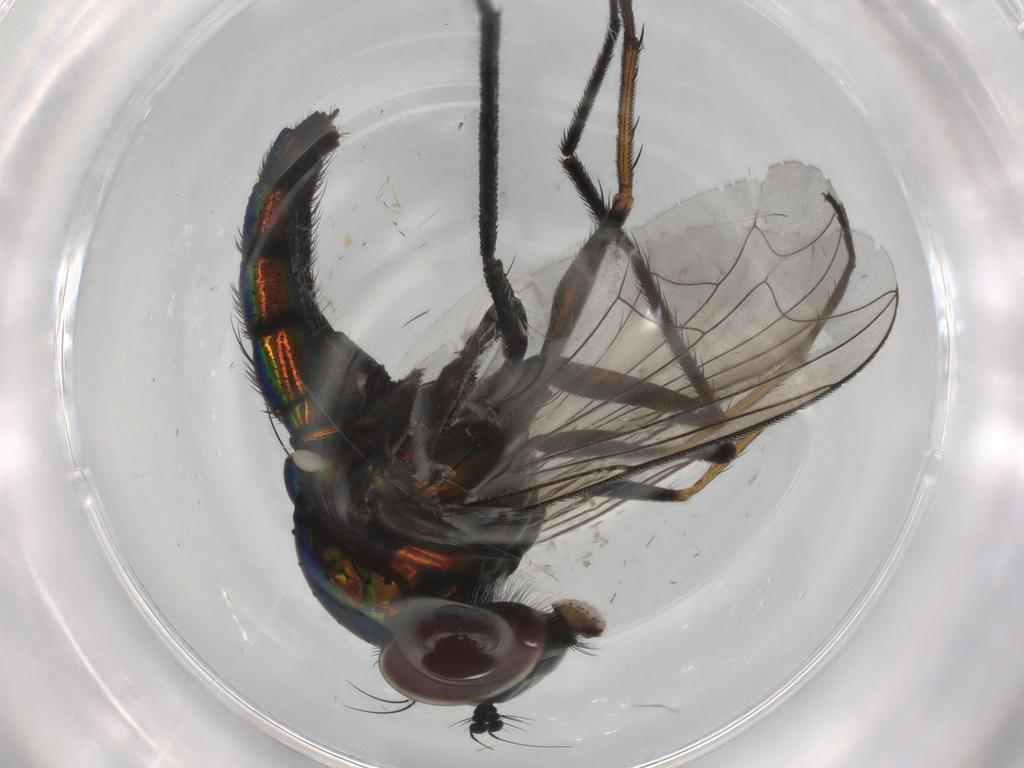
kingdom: Animalia
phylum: Arthropoda
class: Insecta
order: Diptera
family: Dolichopodidae
